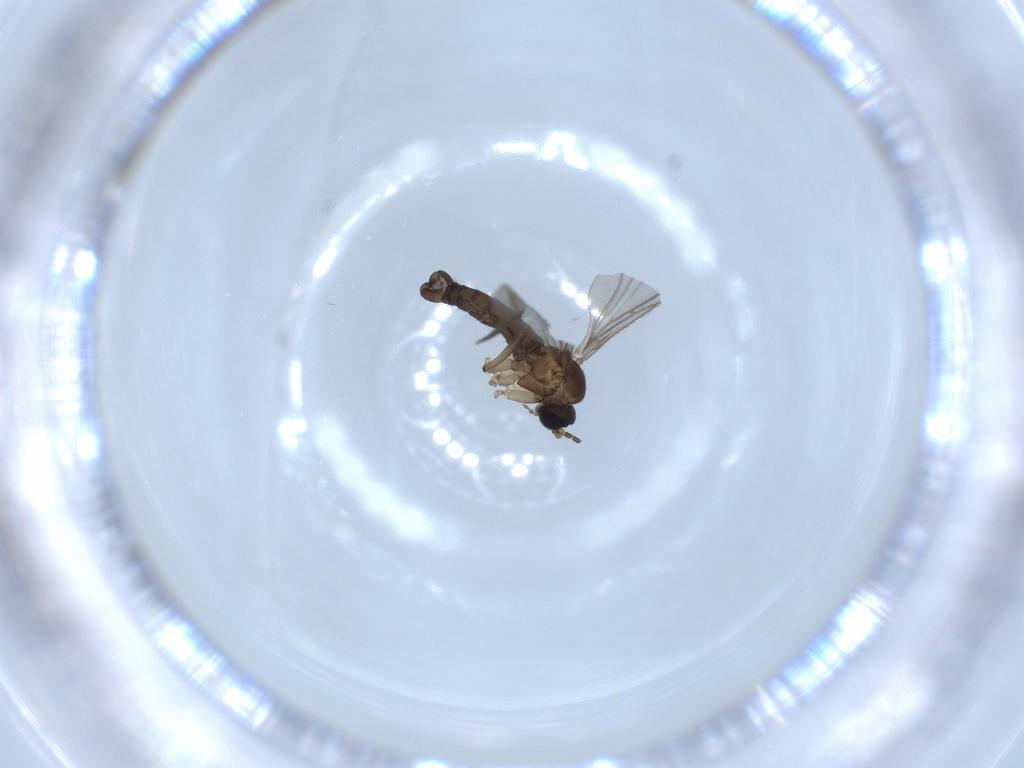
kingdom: Animalia
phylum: Arthropoda
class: Insecta
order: Diptera
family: Sciaridae
